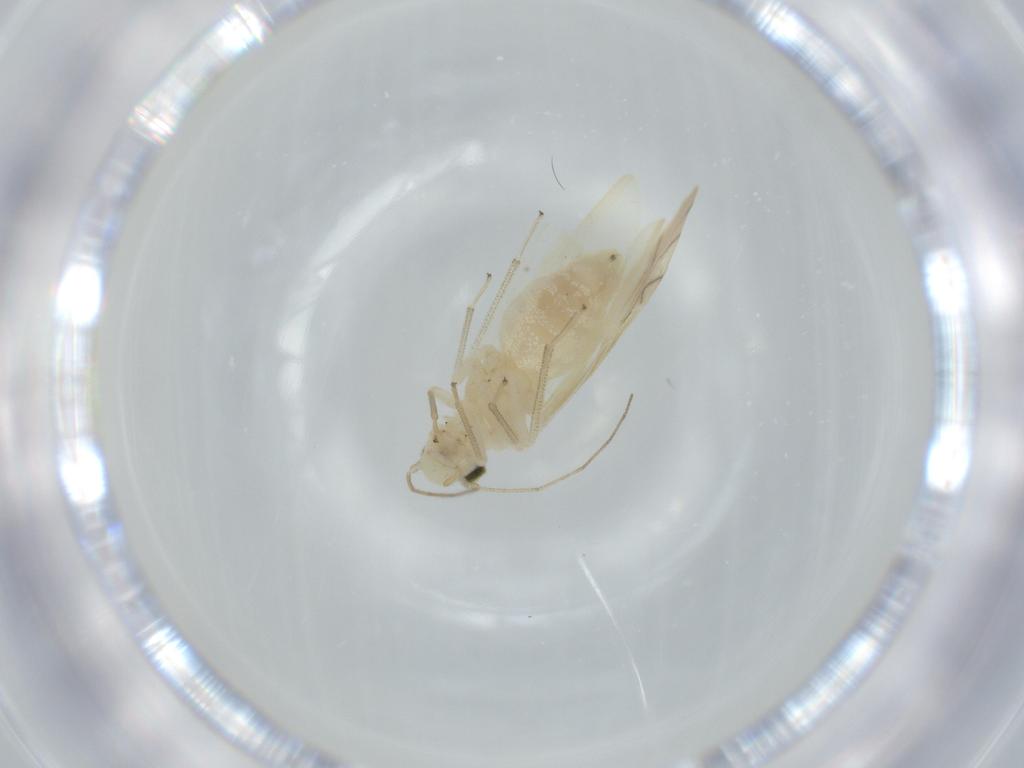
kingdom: Animalia
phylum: Arthropoda
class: Insecta
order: Psocodea
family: Caeciliusidae
